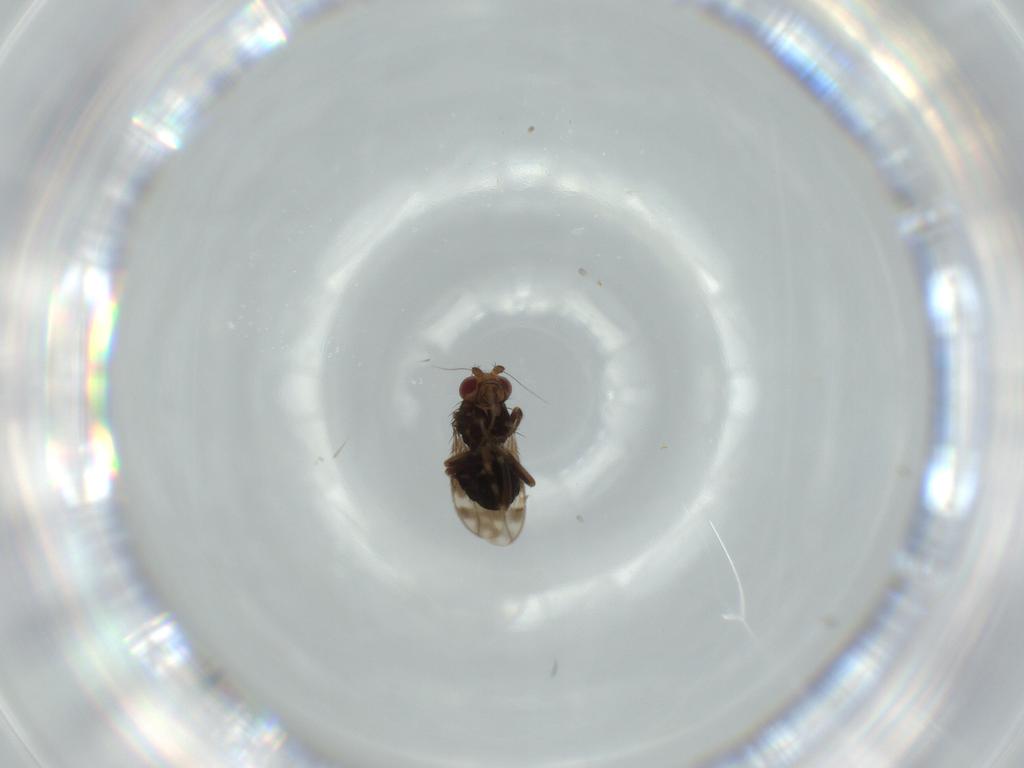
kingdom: Animalia
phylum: Arthropoda
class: Insecta
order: Diptera
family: Sphaeroceridae
